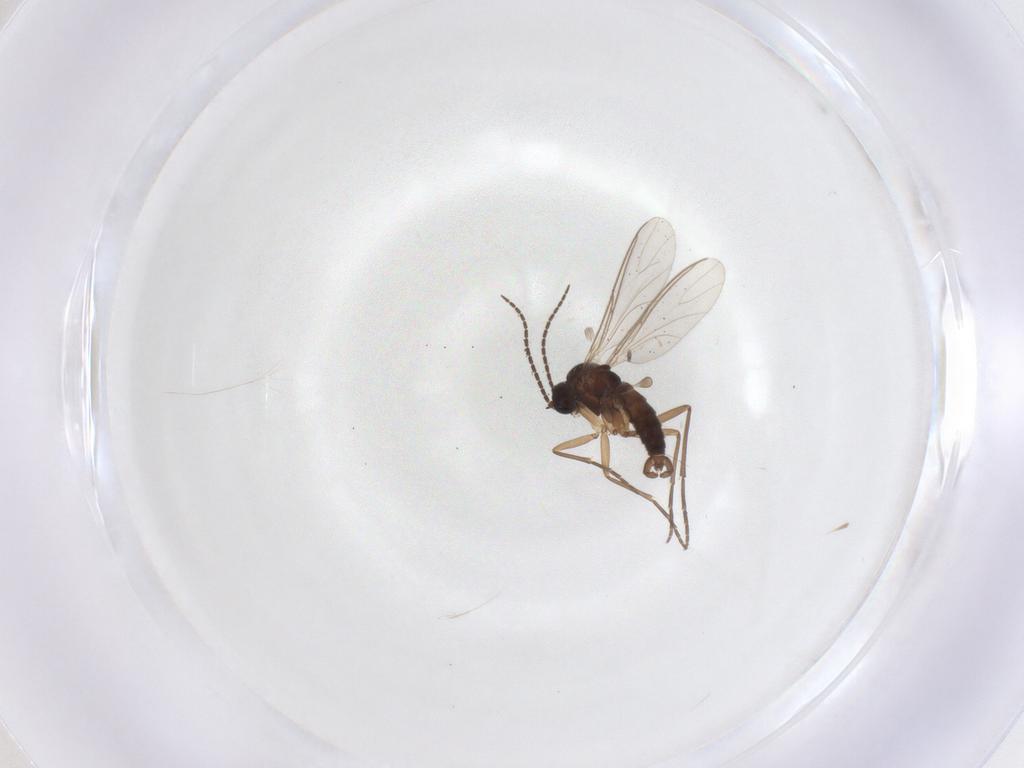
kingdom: Animalia
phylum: Arthropoda
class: Insecta
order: Diptera
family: Sciaridae
